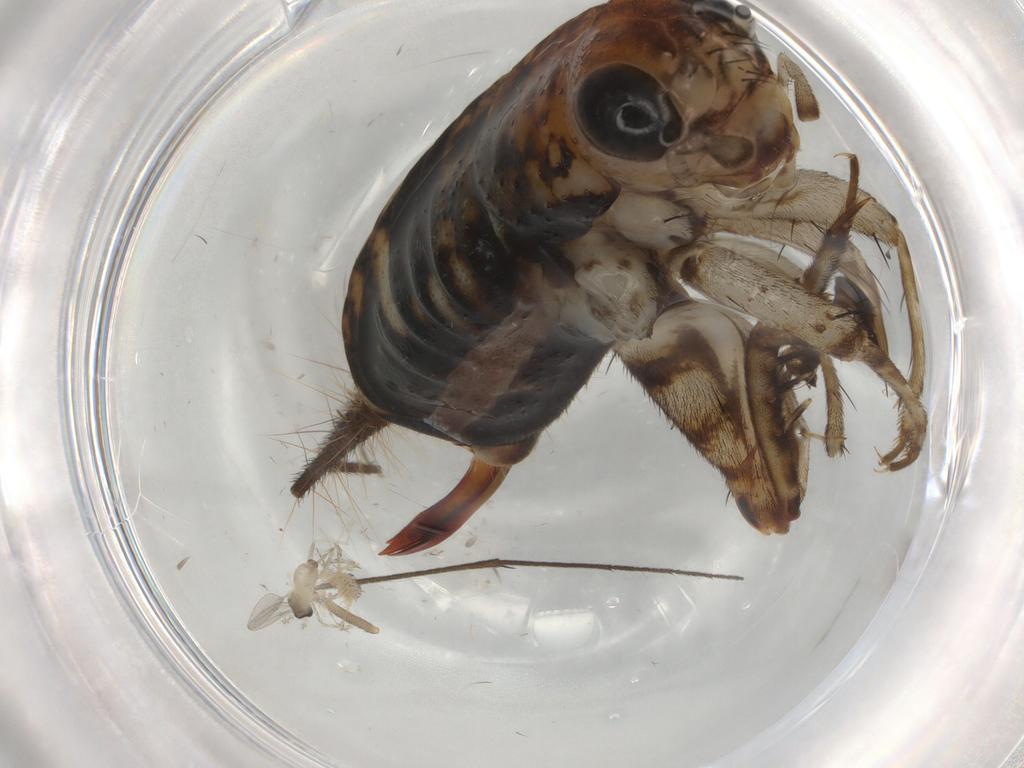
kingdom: Animalia
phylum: Arthropoda
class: Insecta
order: Diptera
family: Cecidomyiidae
